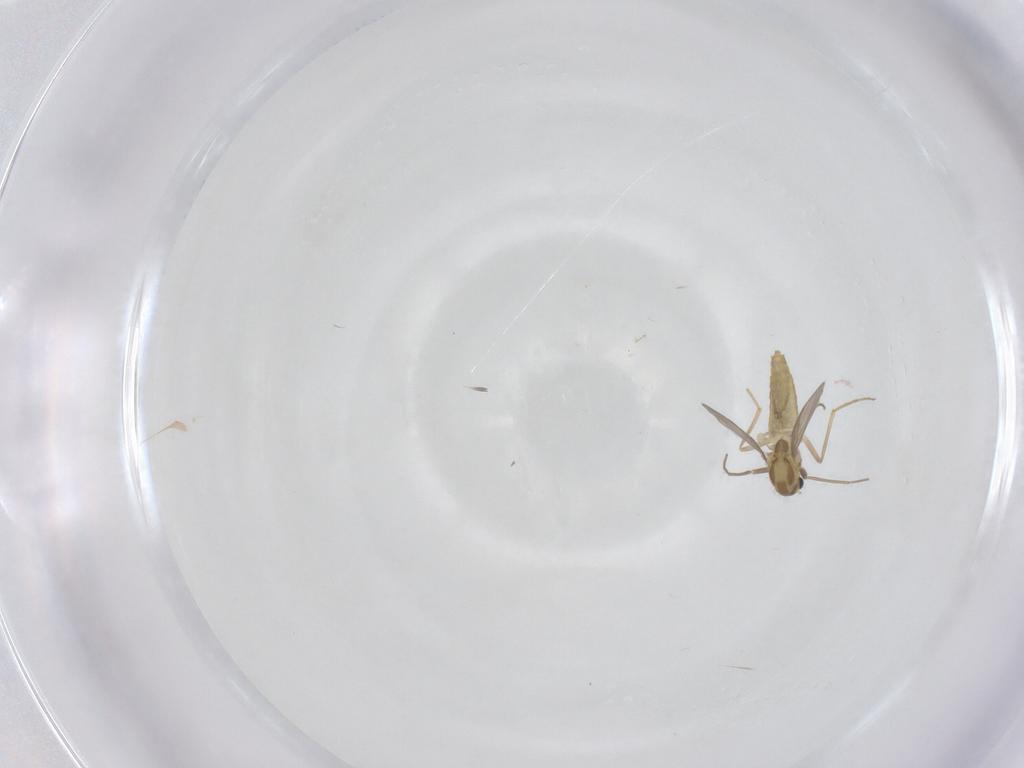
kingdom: Animalia
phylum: Arthropoda
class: Insecta
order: Diptera
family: Chironomidae
